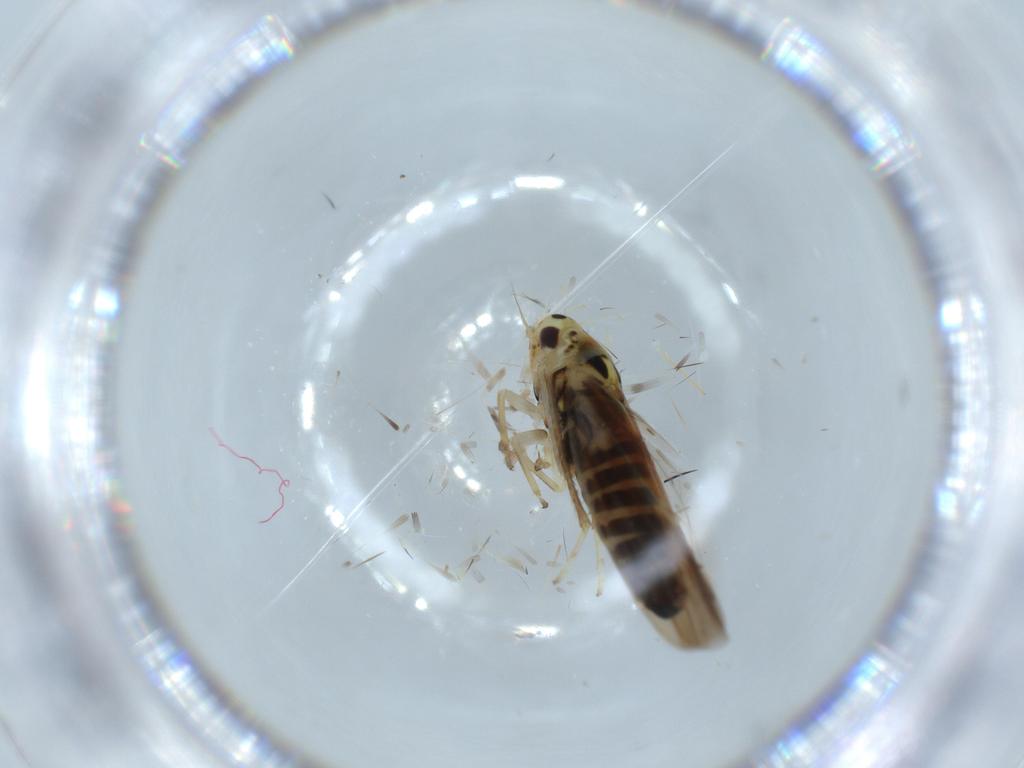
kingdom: Animalia
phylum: Arthropoda
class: Insecta
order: Hemiptera
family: Cicadellidae
